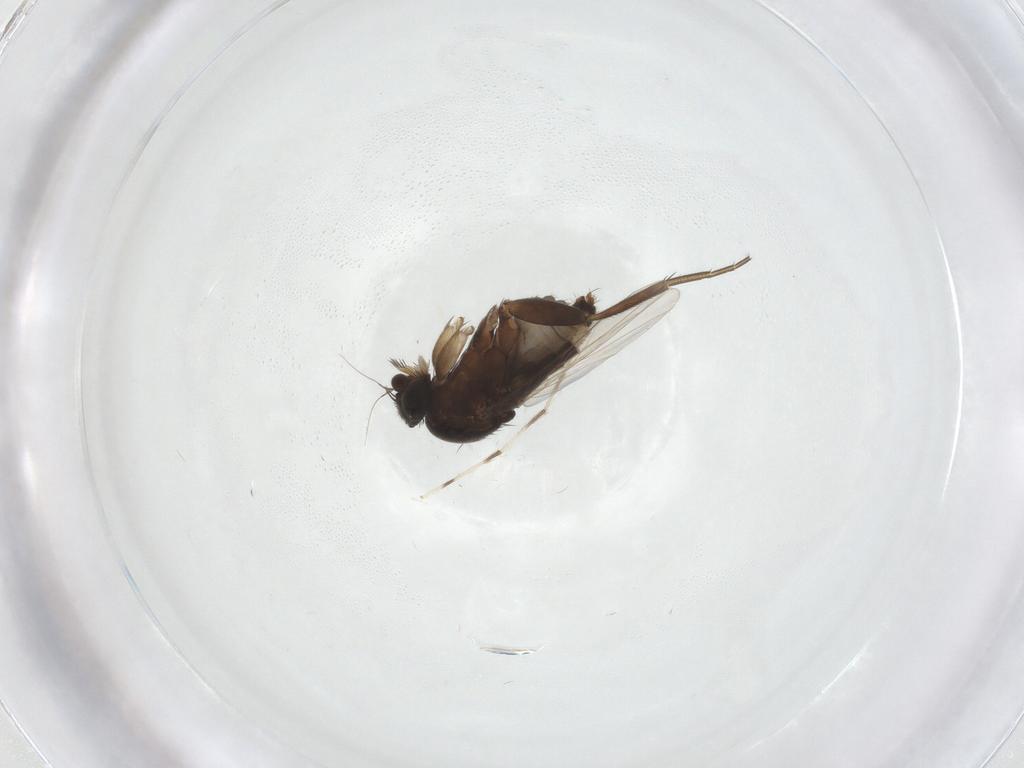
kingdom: Animalia
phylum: Arthropoda
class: Insecta
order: Diptera
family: Phoridae
